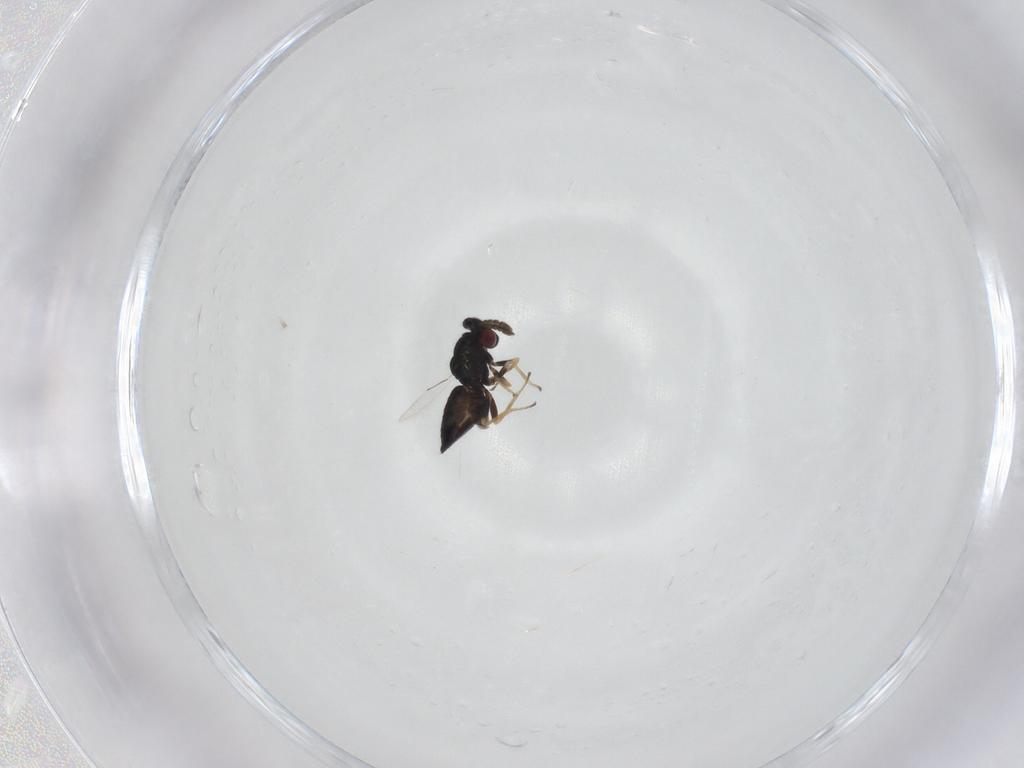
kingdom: Animalia
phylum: Arthropoda
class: Insecta
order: Hymenoptera
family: Eulophidae
